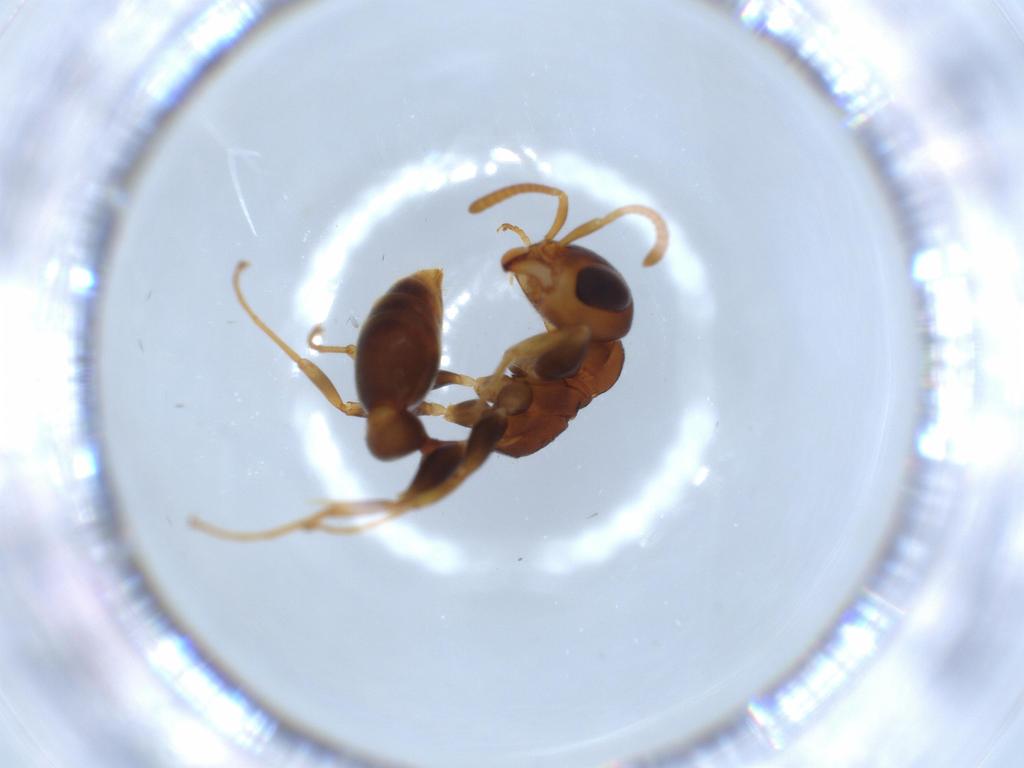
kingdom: Animalia
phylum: Arthropoda
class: Insecta
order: Hymenoptera
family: Formicidae
